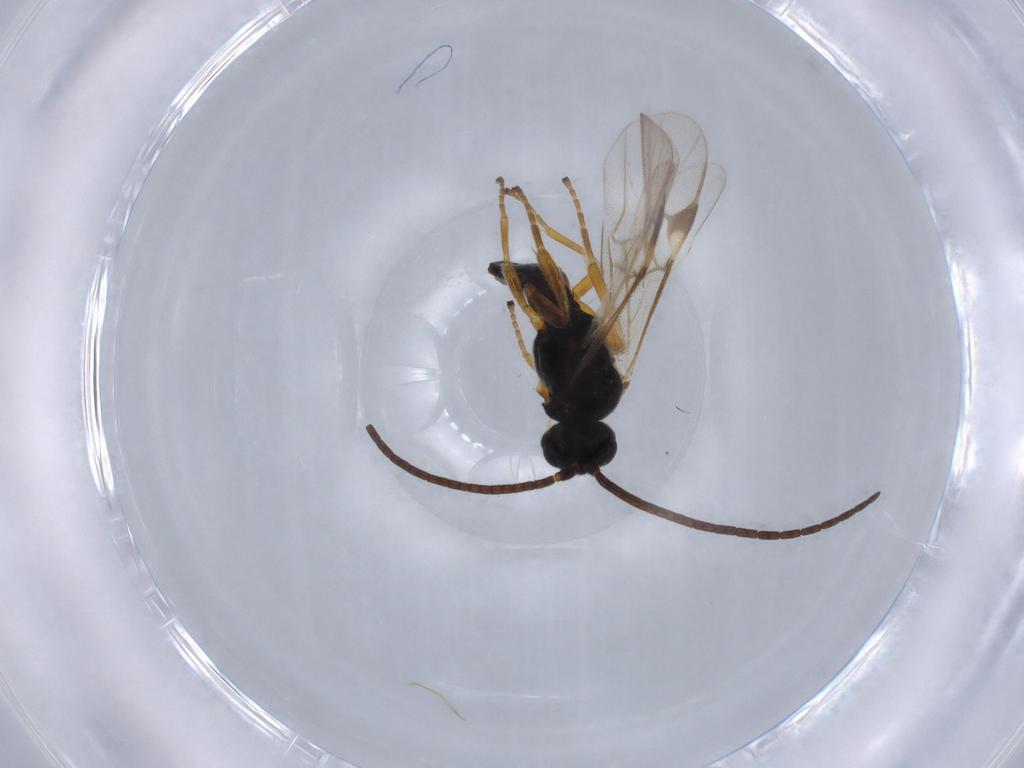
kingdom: Animalia
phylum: Arthropoda
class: Insecta
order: Hymenoptera
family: Braconidae
